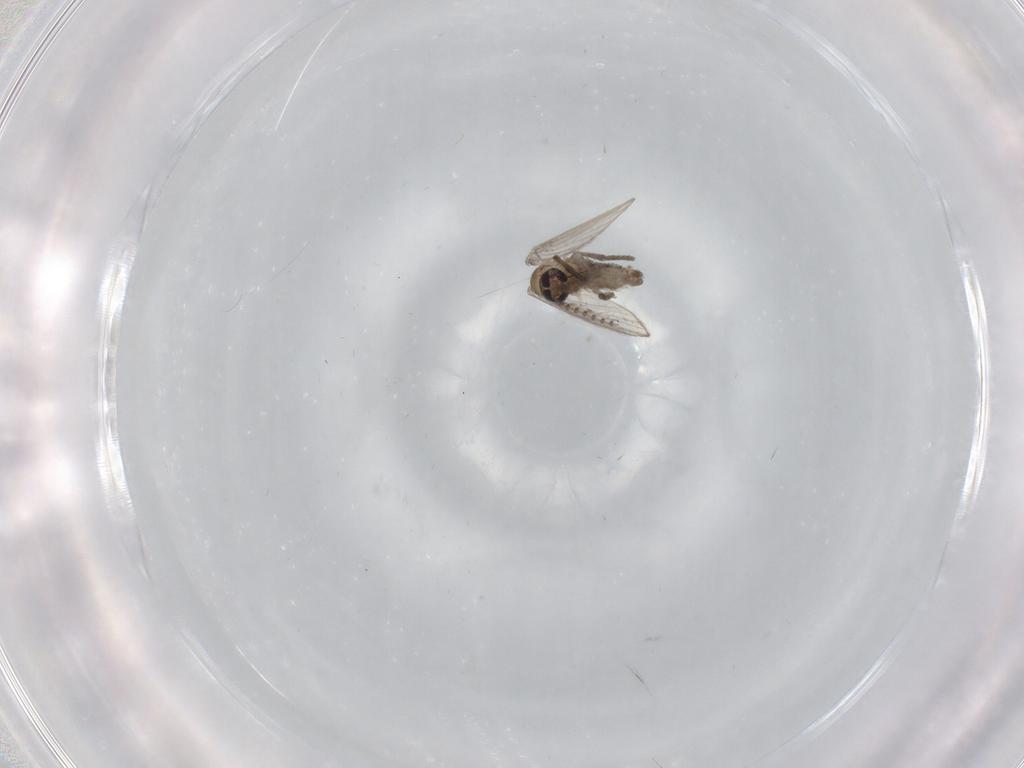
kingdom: Animalia
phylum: Arthropoda
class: Insecta
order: Diptera
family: Psychodidae
